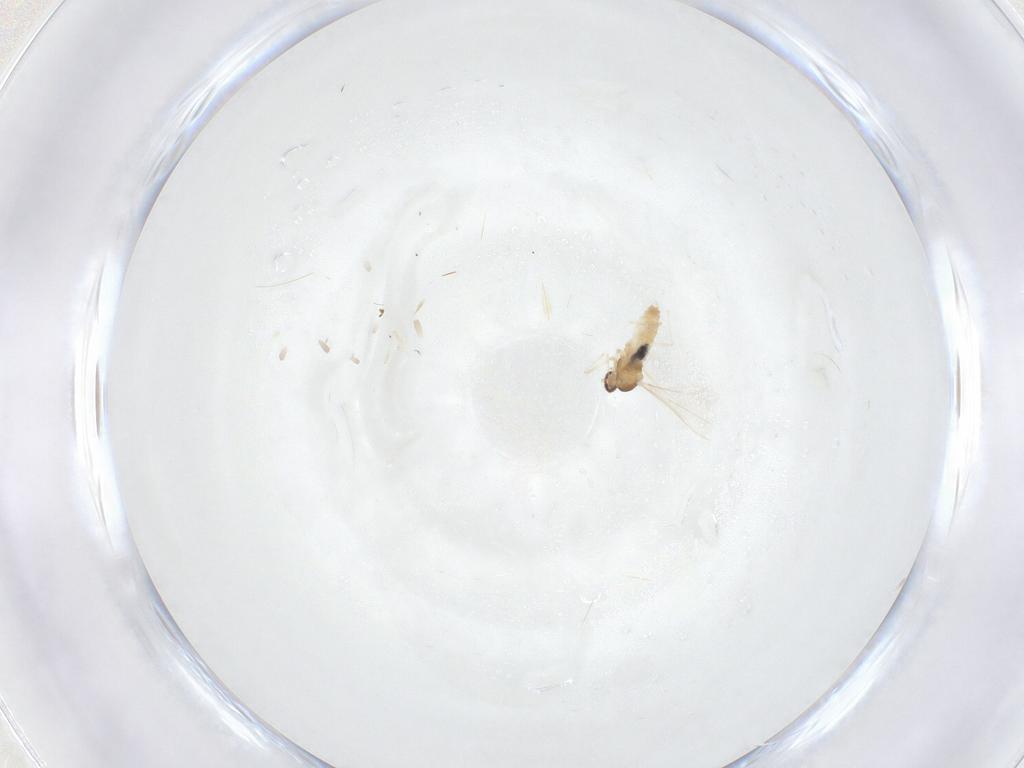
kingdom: Animalia
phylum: Arthropoda
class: Insecta
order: Diptera
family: Cecidomyiidae
